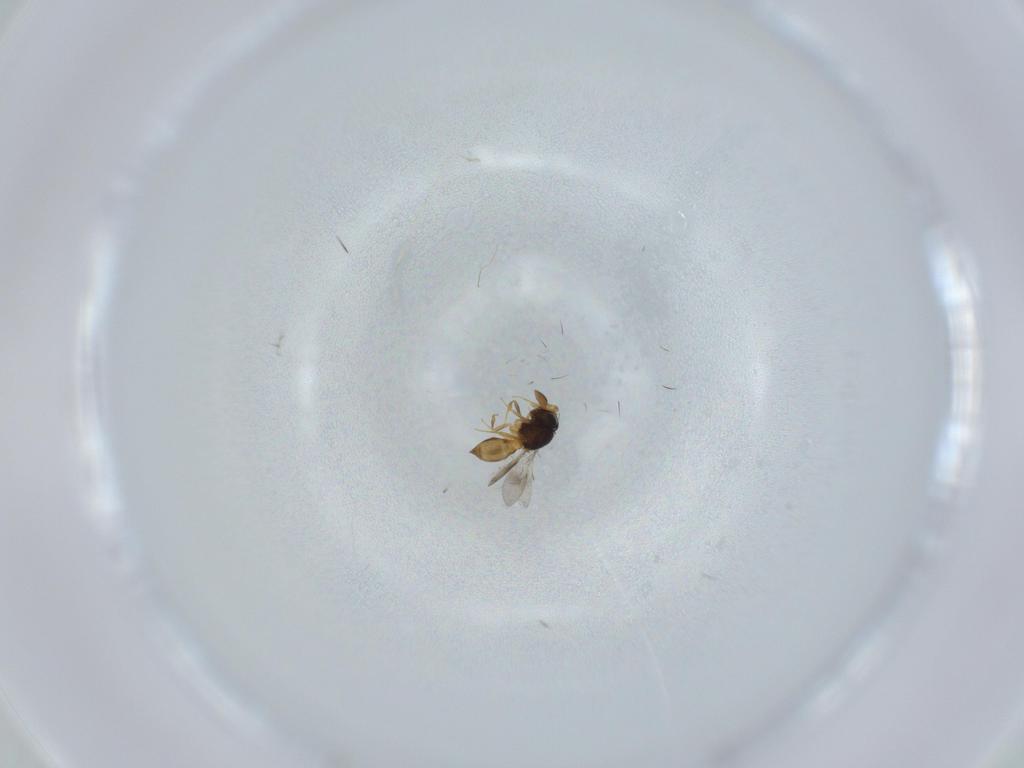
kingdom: Animalia
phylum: Arthropoda
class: Insecta
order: Hymenoptera
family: Scelionidae
